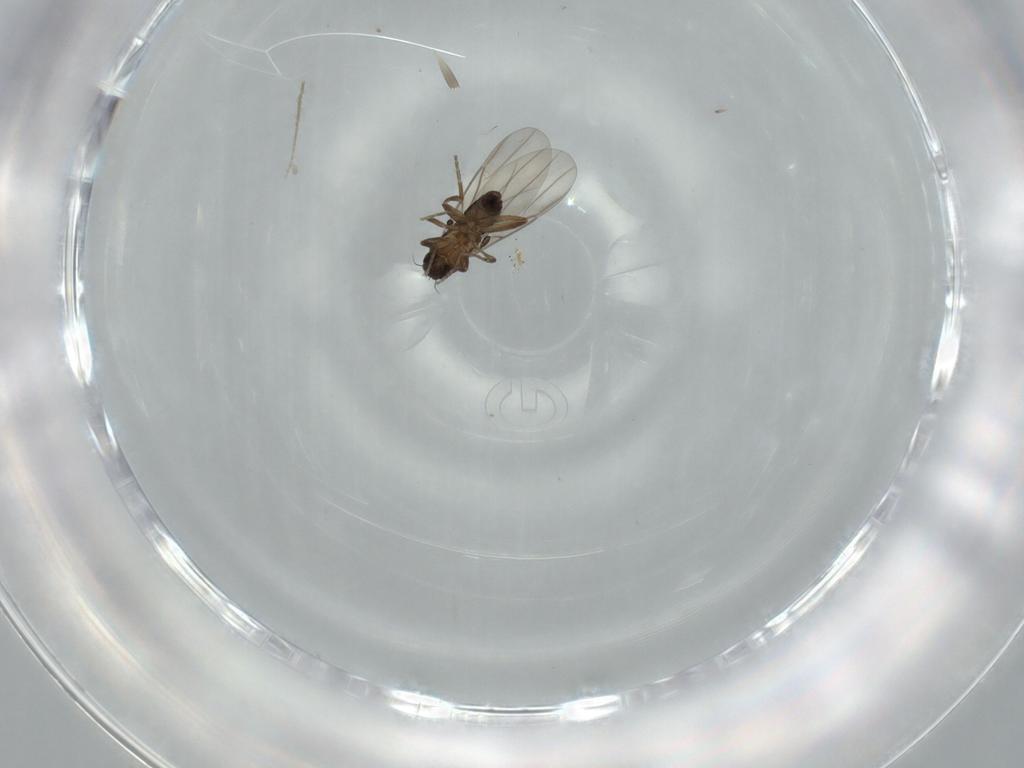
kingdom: Animalia
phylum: Arthropoda
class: Insecta
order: Diptera
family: Phoridae
